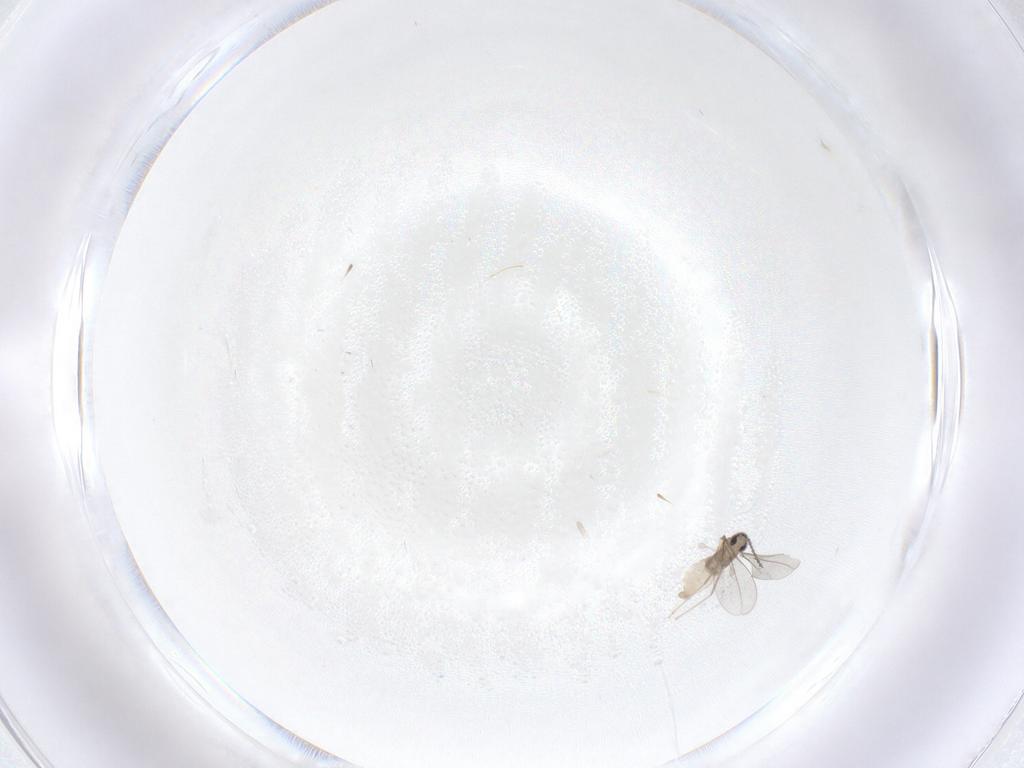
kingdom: Animalia
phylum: Arthropoda
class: Insecta
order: Diptera
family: Cecidomyiidae
